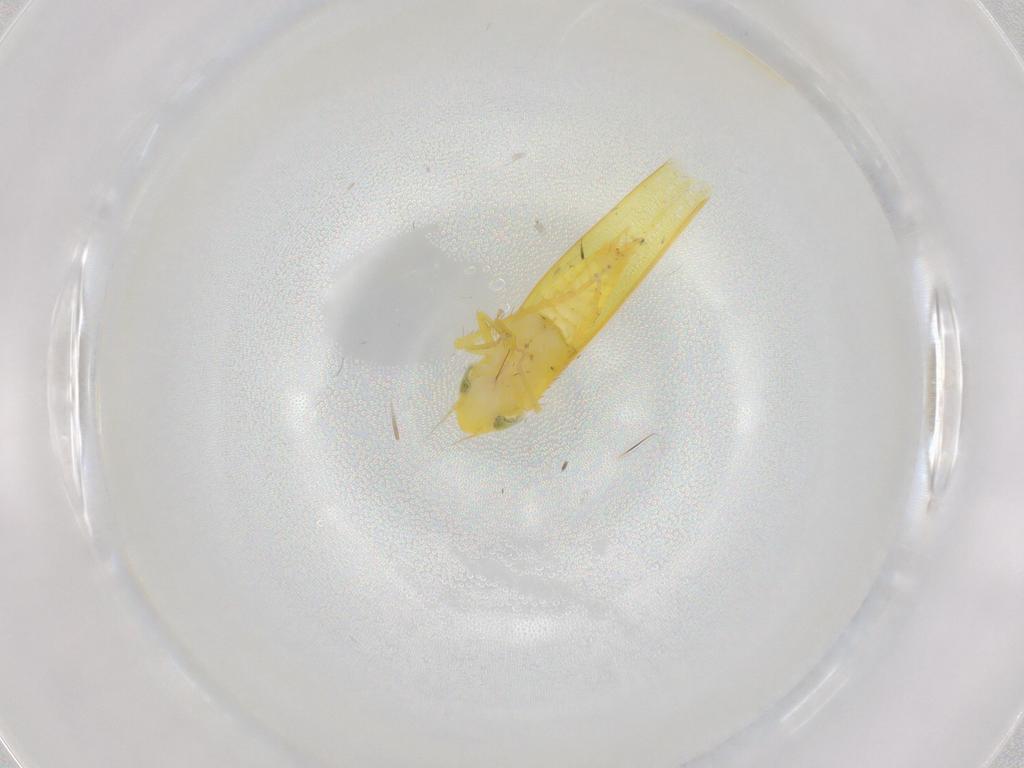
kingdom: Animalia
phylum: Arthropoda
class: Insecta
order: Hemiptera
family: Cicadellidae
